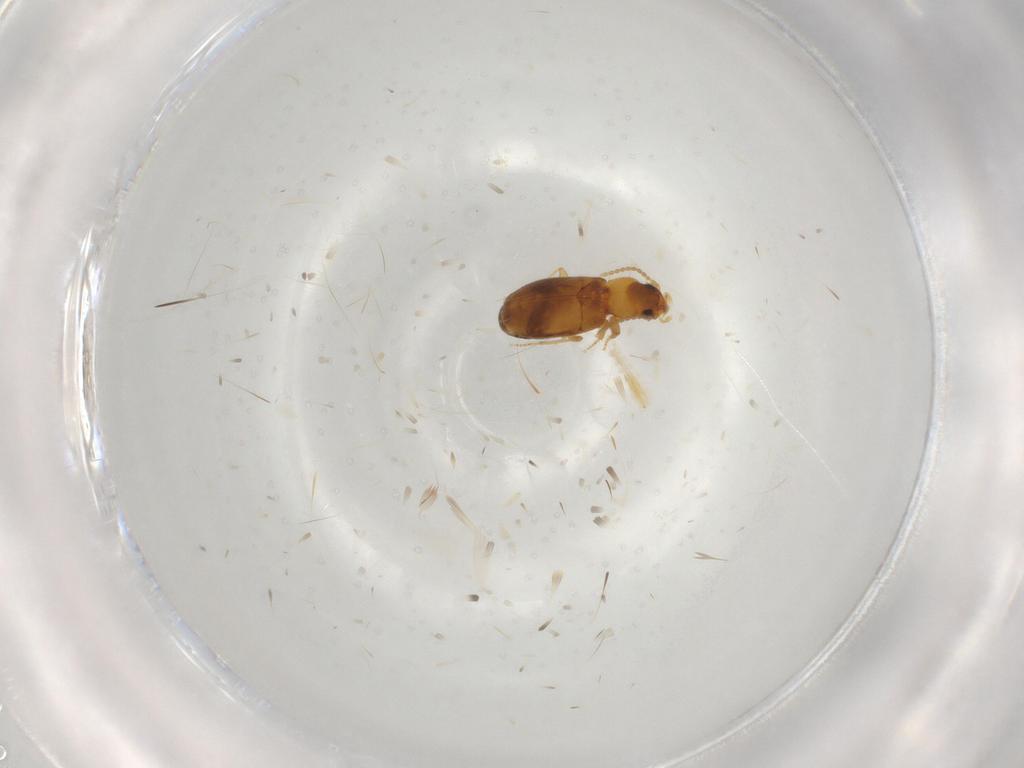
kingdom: Animalia
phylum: Arthropoda
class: Insecta
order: Coleoptera
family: Carabidae
